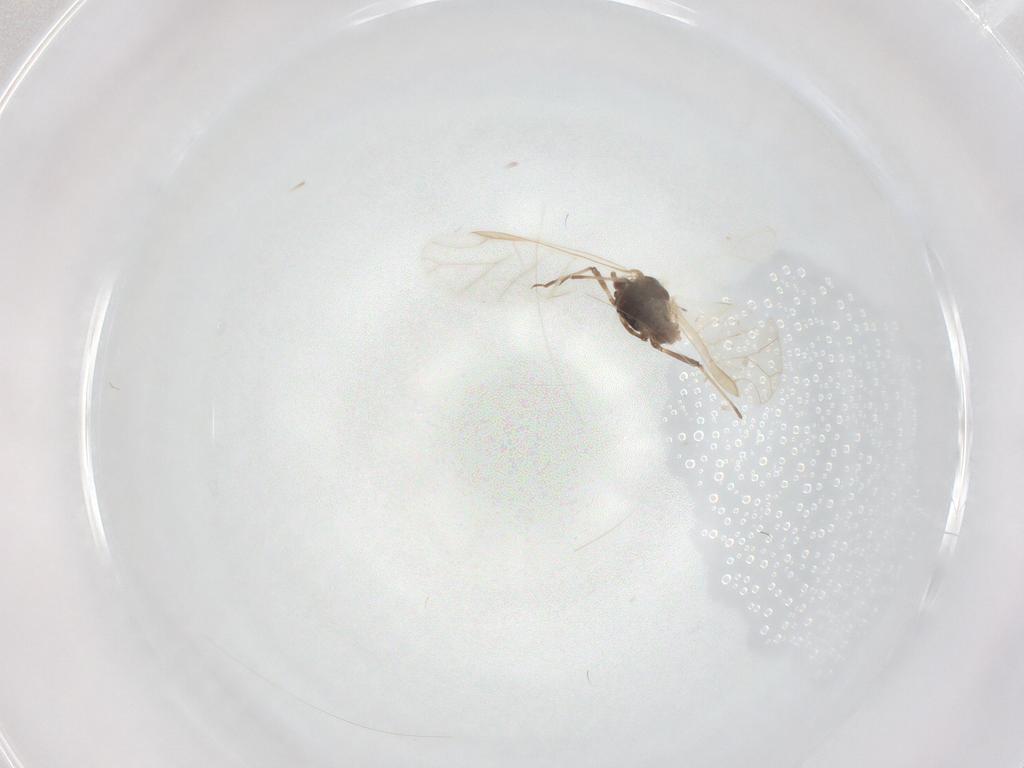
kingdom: Animalia
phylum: Arthropoda
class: Insecta
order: Hemiptera
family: Aphididae
